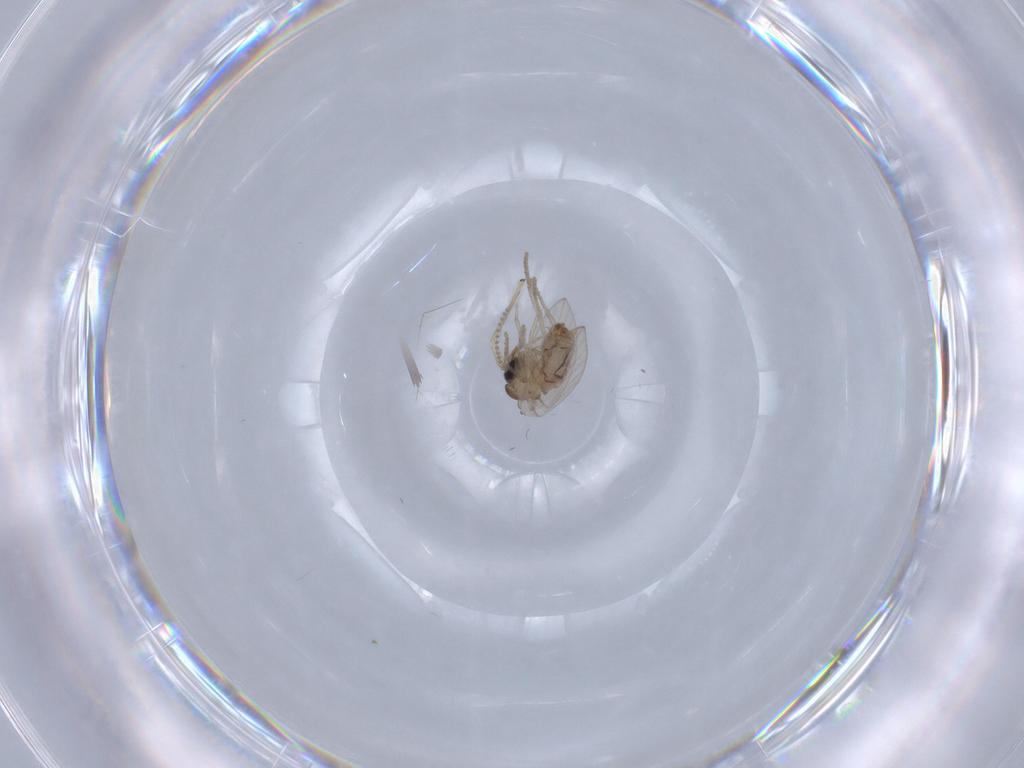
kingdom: Animalia
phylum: Arthropoda
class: Insecta
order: Diptera
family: Psychodidae
